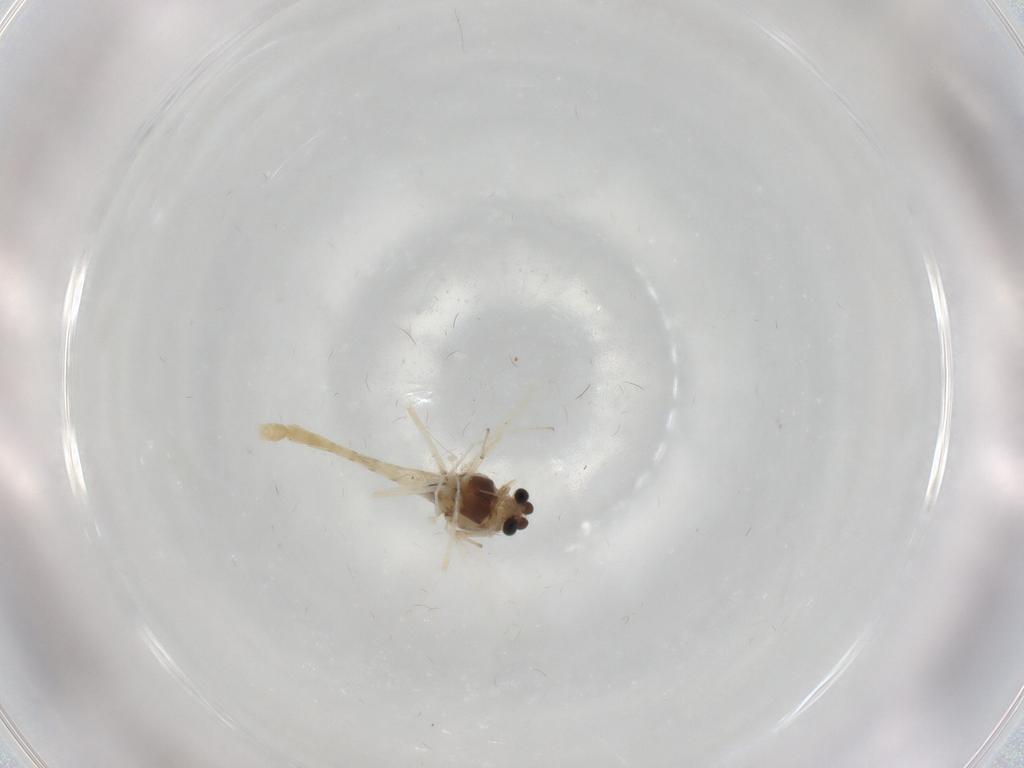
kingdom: Animalia
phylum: Arthropoda
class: Insecta
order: Diptera
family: Chironomidae
